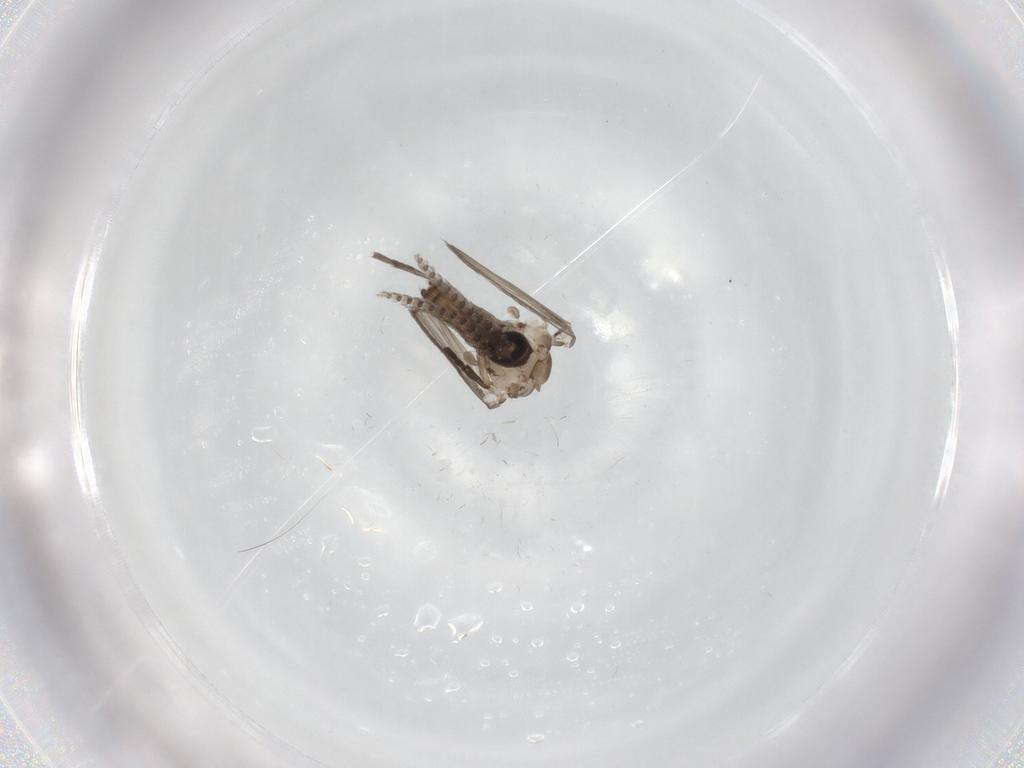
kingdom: Animalia
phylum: Arthropoda
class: Insecta
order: Diptera
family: Psychodidae
